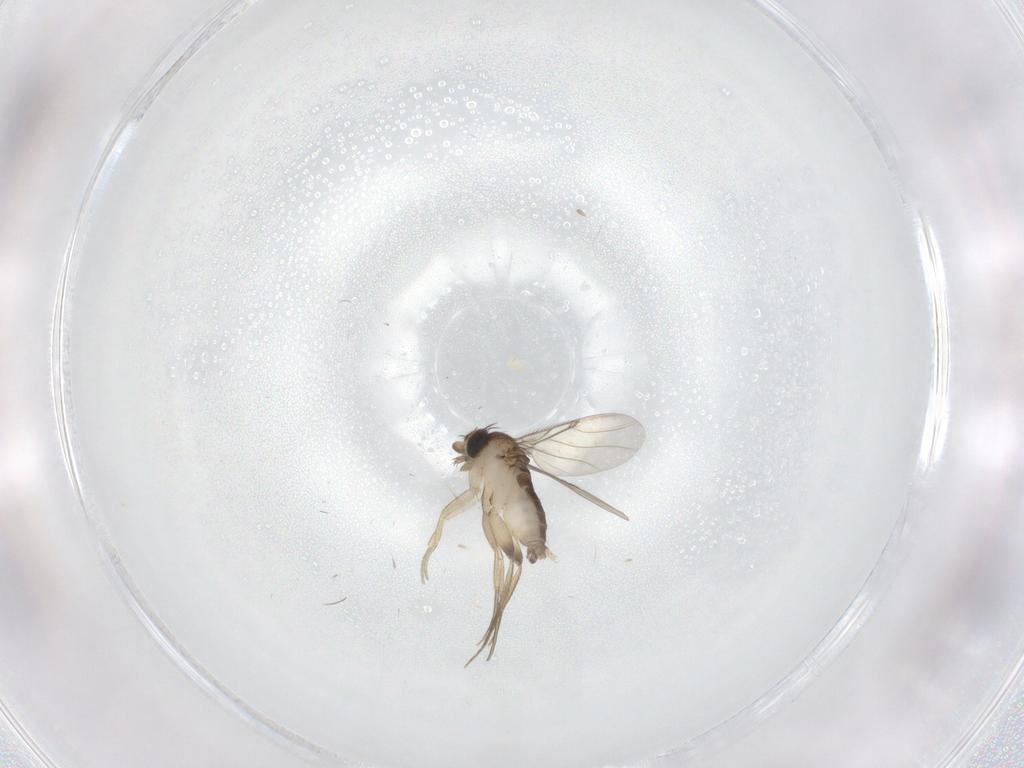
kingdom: Animalia
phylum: Arthropoda
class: Insecta
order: Diptera
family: Phoridae
